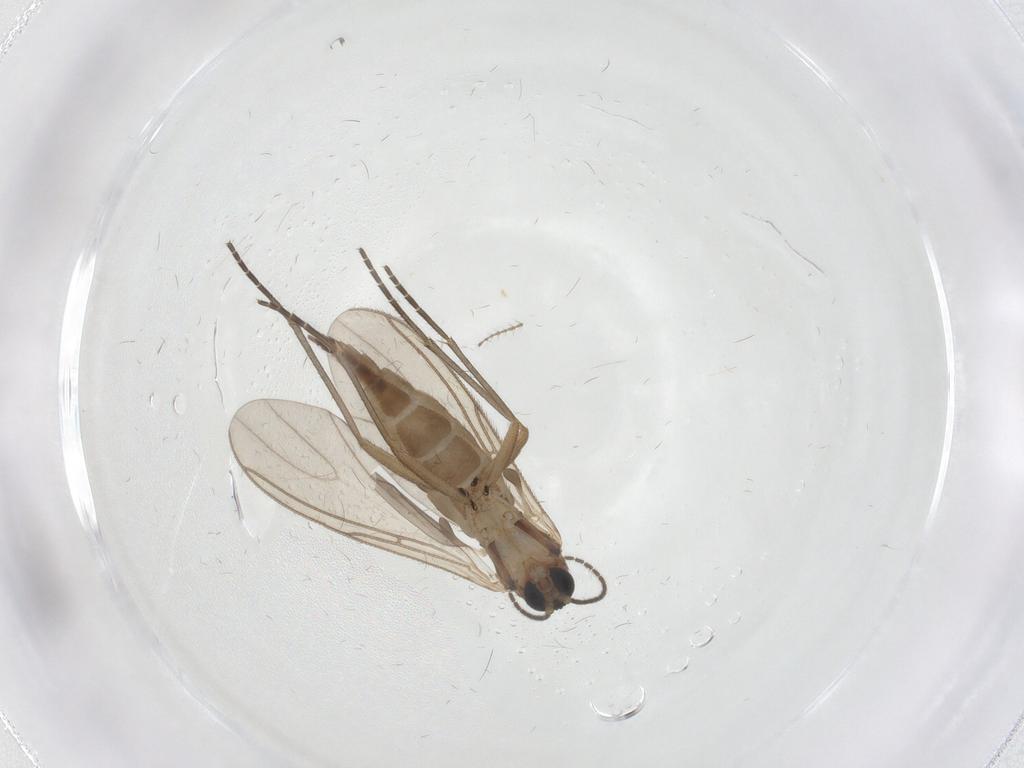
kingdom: Animalia
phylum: Arthropoda
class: Insecta
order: Diptera
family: Sciaridae
